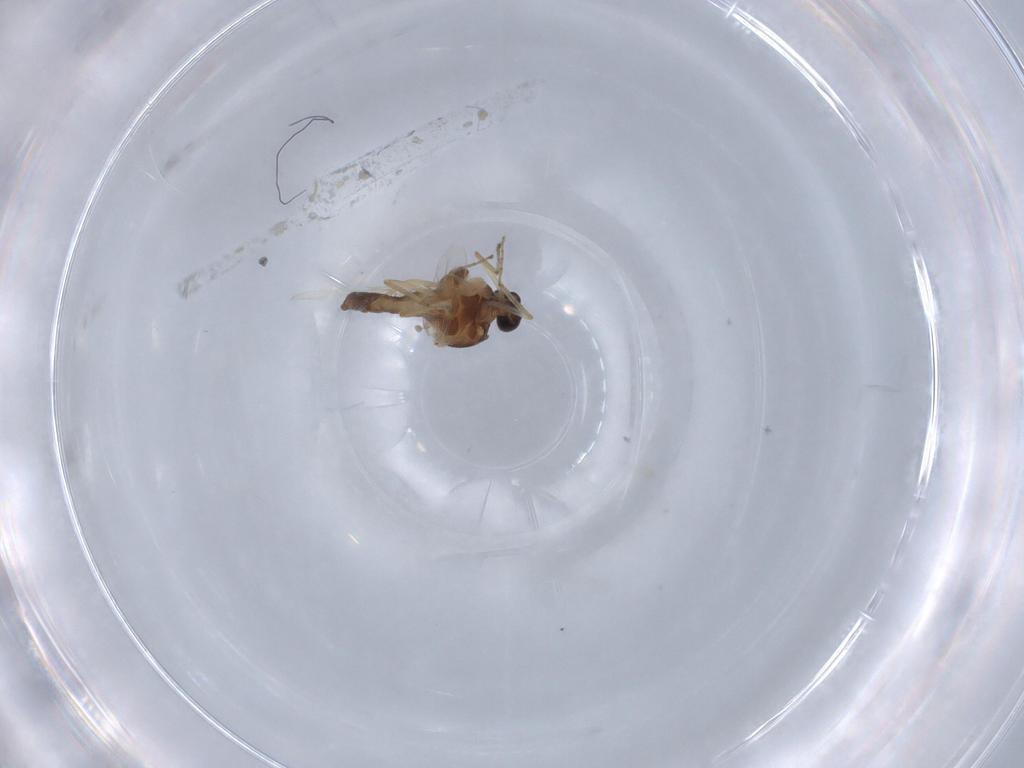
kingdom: Animalia
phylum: Arthropoda
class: Insecta
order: Diptera
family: Ceratopogonidae
